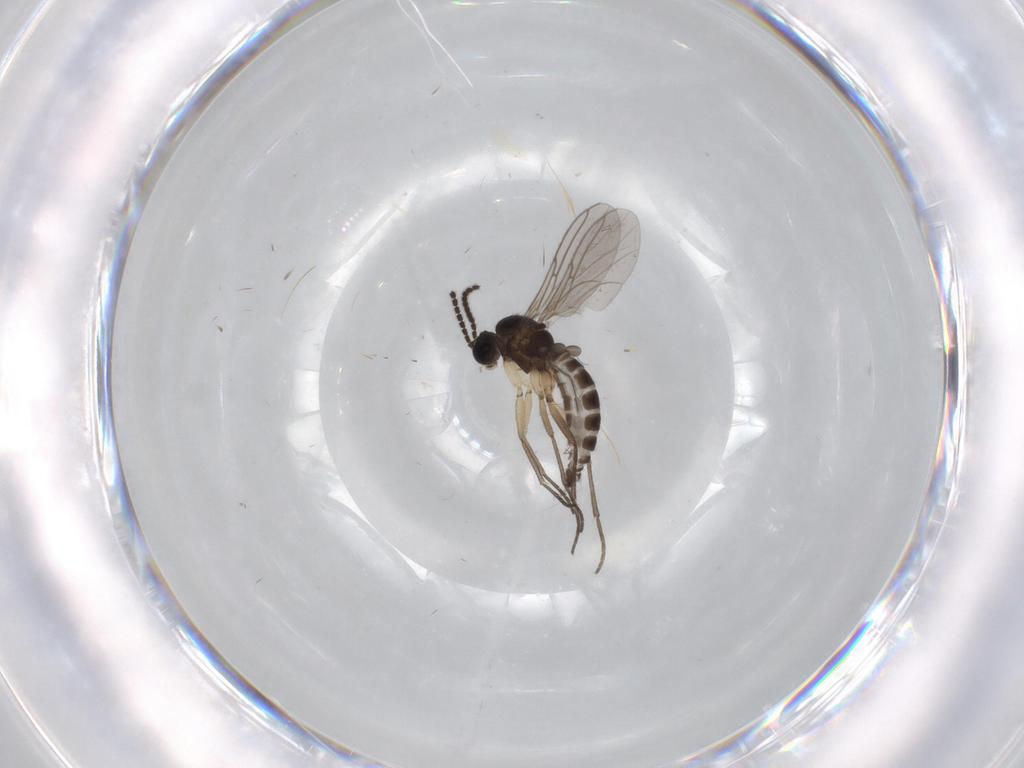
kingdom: Animalia
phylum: Arthropoda
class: Insecta
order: Diptera
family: Sciaridae
